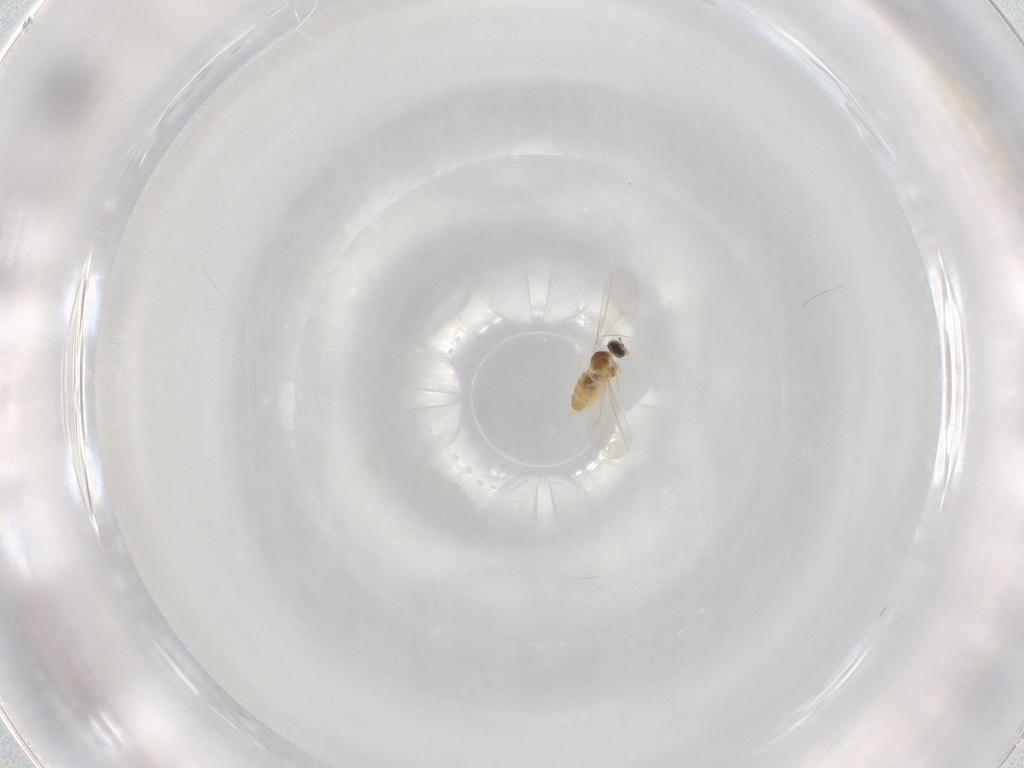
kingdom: Animalia
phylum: Arthropoda
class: Insecta
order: Diptera
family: Cecidomyiidae
